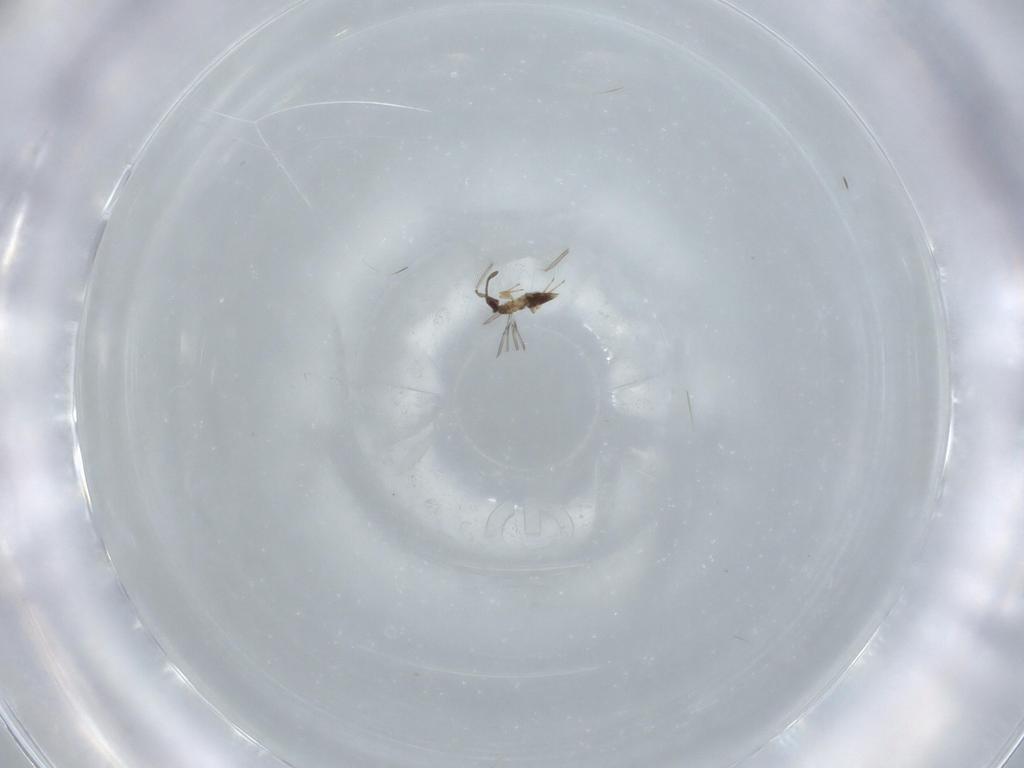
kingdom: Animalia
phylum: Arthropoda
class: Insecta
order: Hymenoptera
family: Mymaridae
